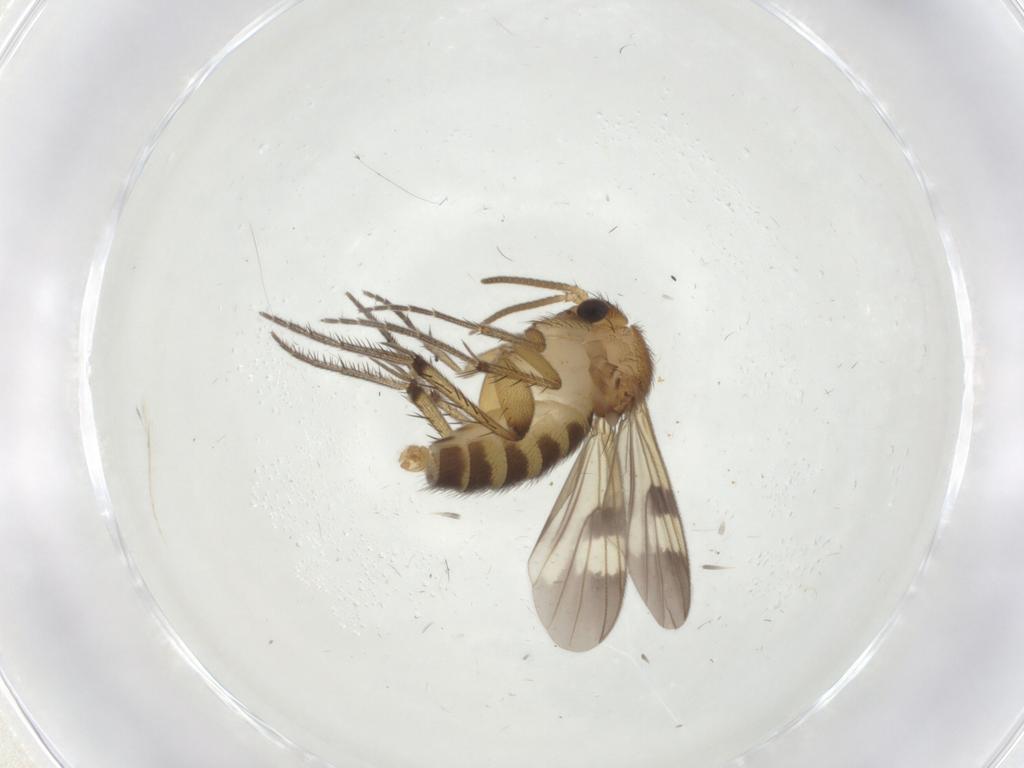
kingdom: Animalia
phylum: Arthropoda
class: Insecta
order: Diptera
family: Mycetophilidae
